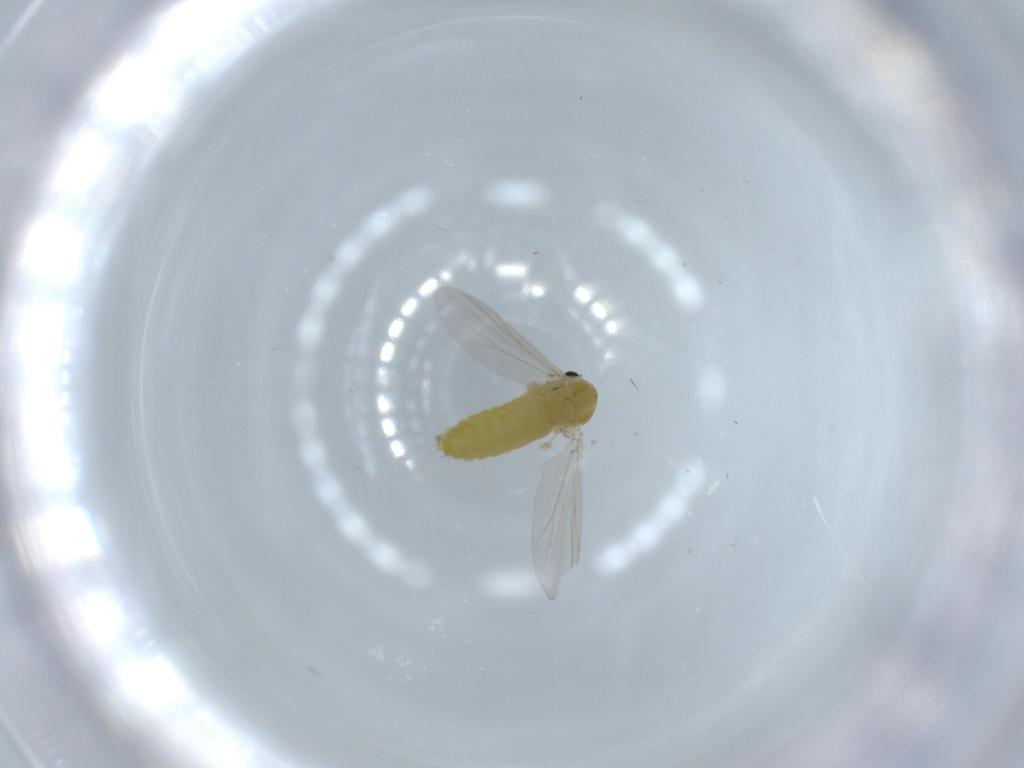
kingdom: Animalia
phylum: Arthropoda
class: Insecta
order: Diptera
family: Chironomidae
